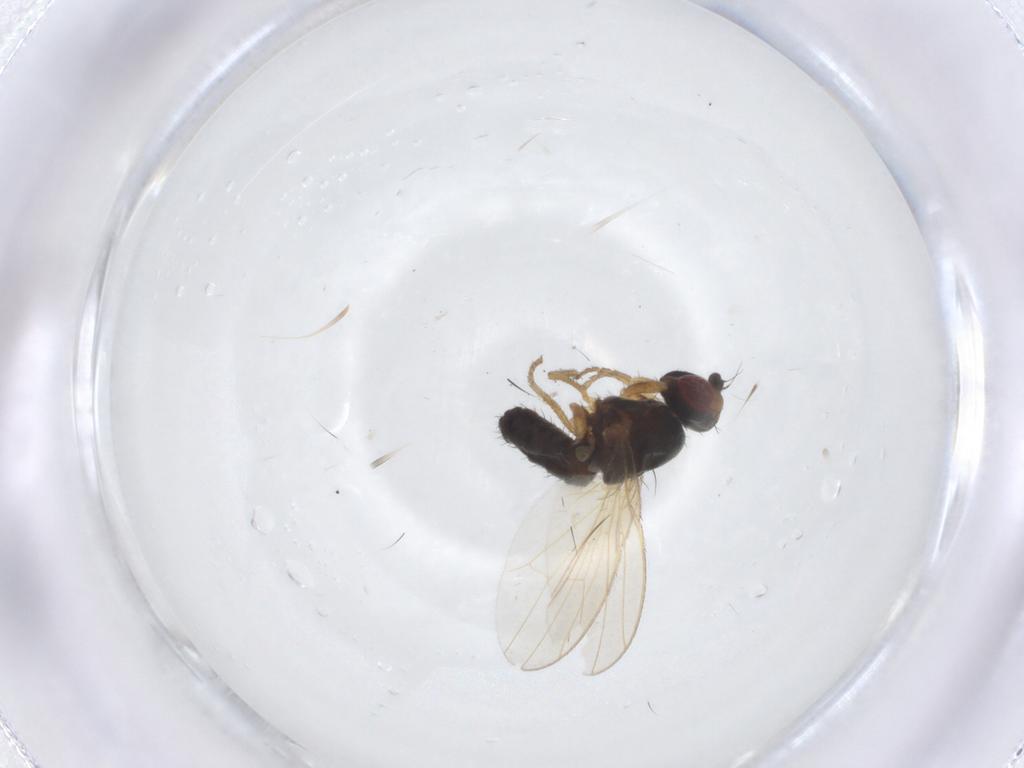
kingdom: Animalia
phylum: Arthropoda
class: Insecta
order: Diptera
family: Heleomyzidae
